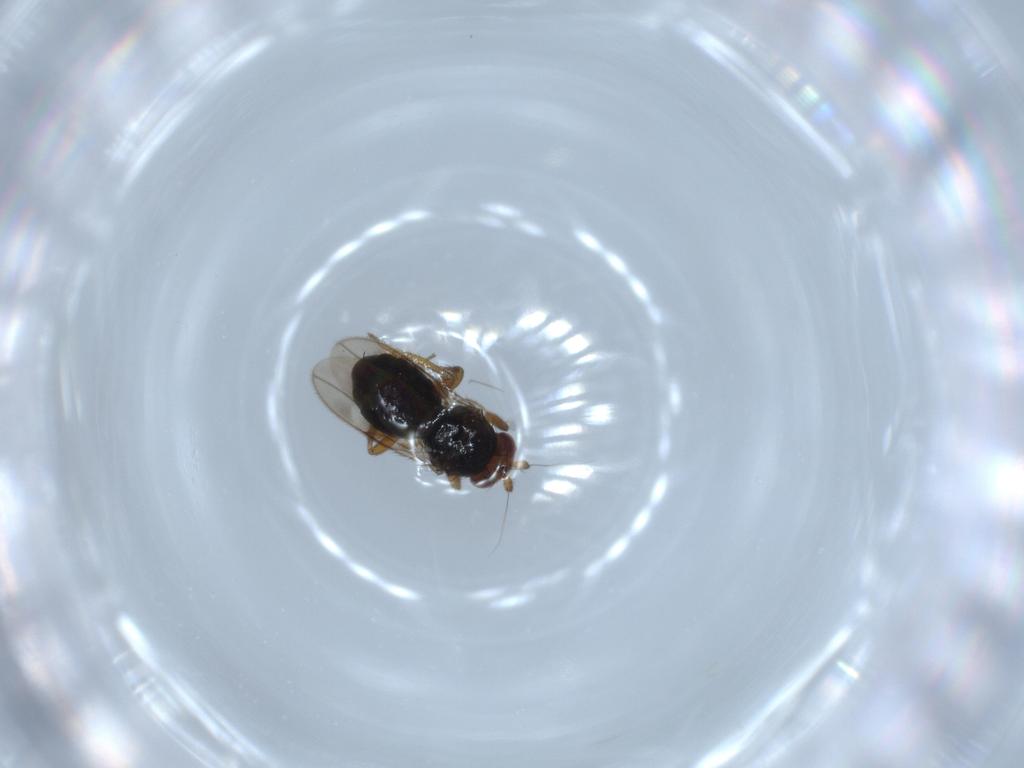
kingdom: Animalia
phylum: Arthropoda
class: Insecta
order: Diptera
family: Sphaeroceridae
